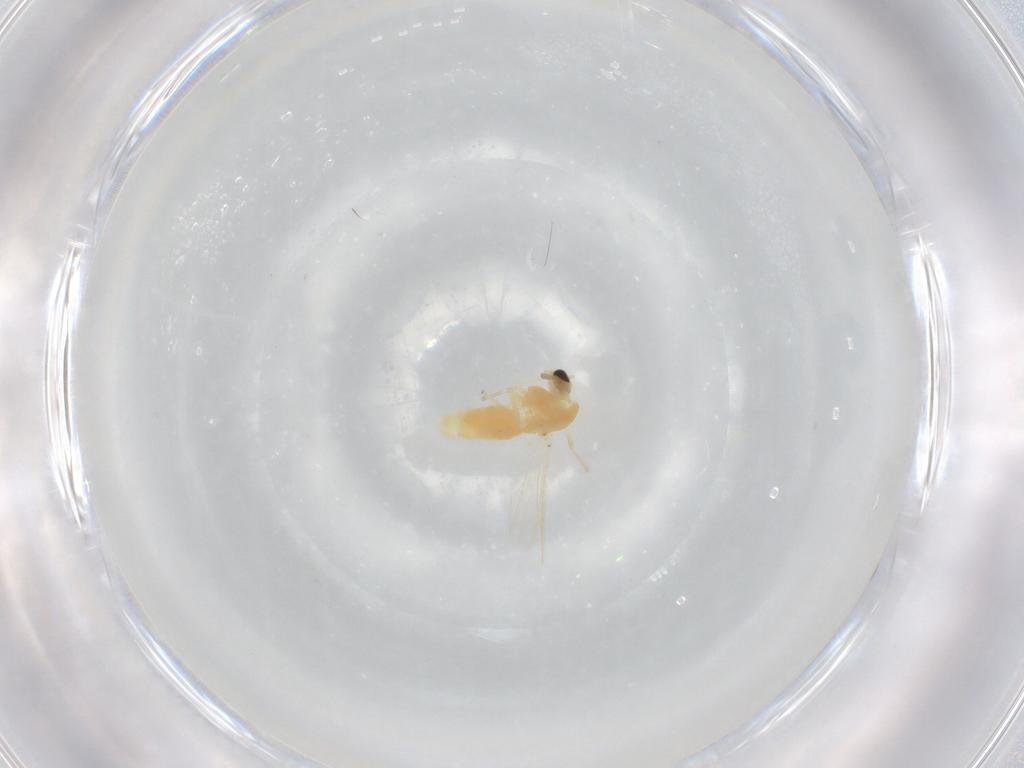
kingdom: Animalia
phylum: Arthropoda
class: Insecta
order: Diptera
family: Chironomidae
